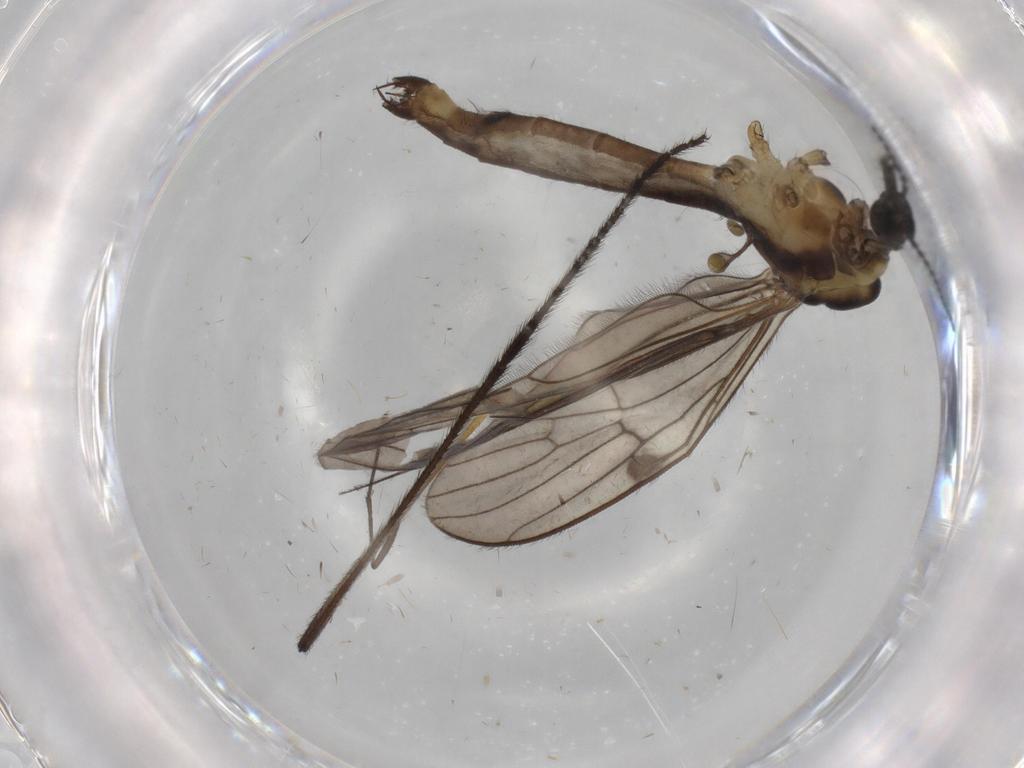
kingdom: Animalia
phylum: Arthropoda
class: Insecta
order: Diptera
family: Limoniidae
